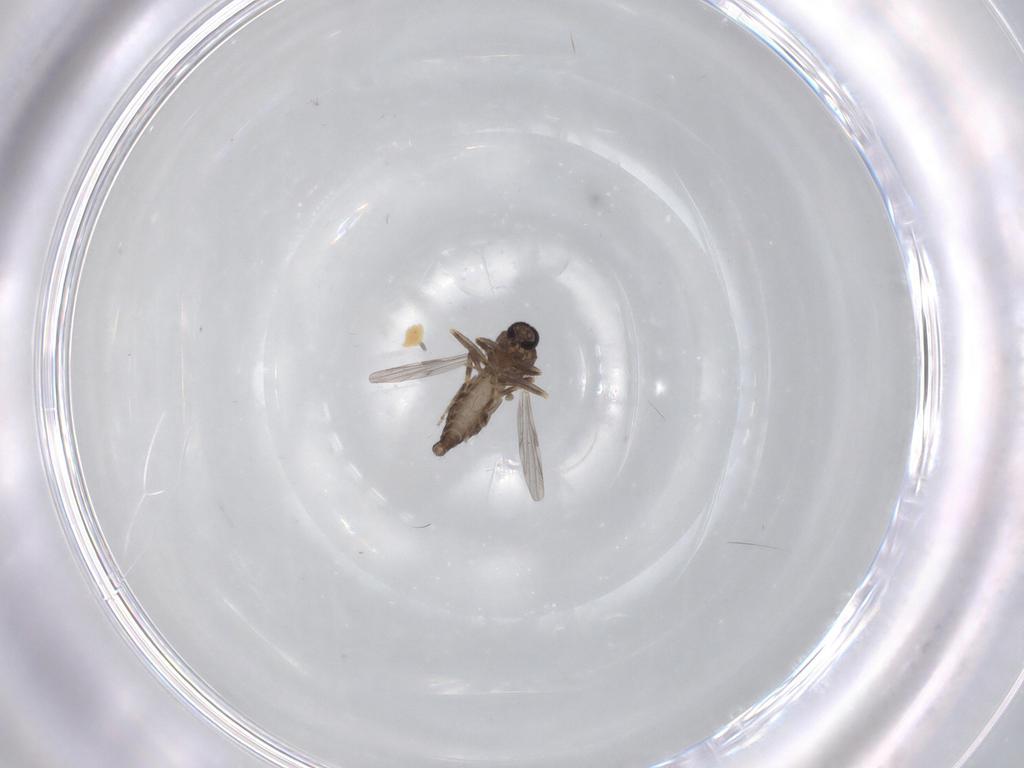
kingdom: Animalia
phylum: Arthropoda
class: Insecta
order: Diptera
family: Ceratopogonidae
